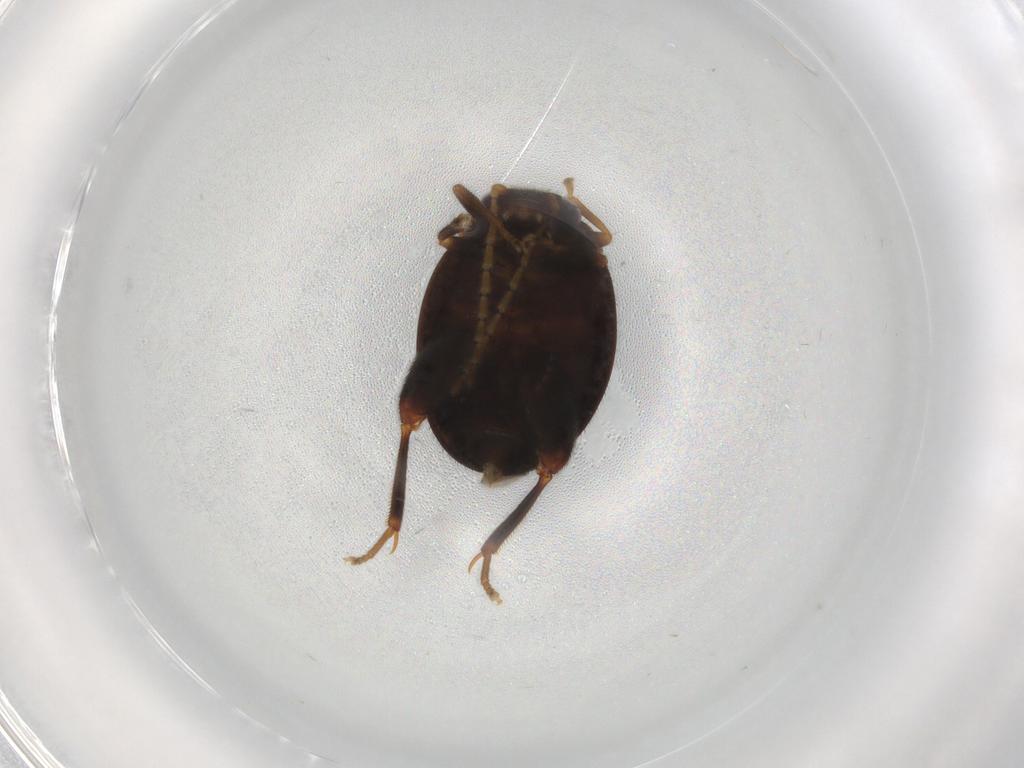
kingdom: Animalia
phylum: Arthropoda
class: Insecta
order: Coleoptera
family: Scirtidae
